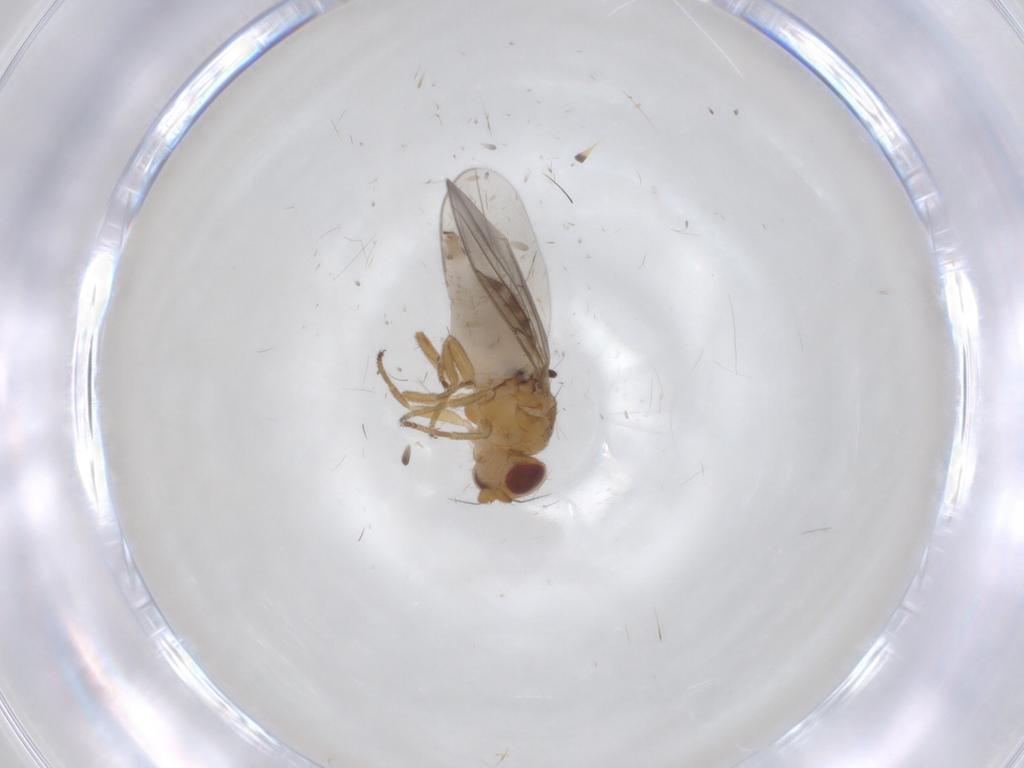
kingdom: Animalia
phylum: Arthropoda
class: Insecta
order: Diptera
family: Chloropidae
